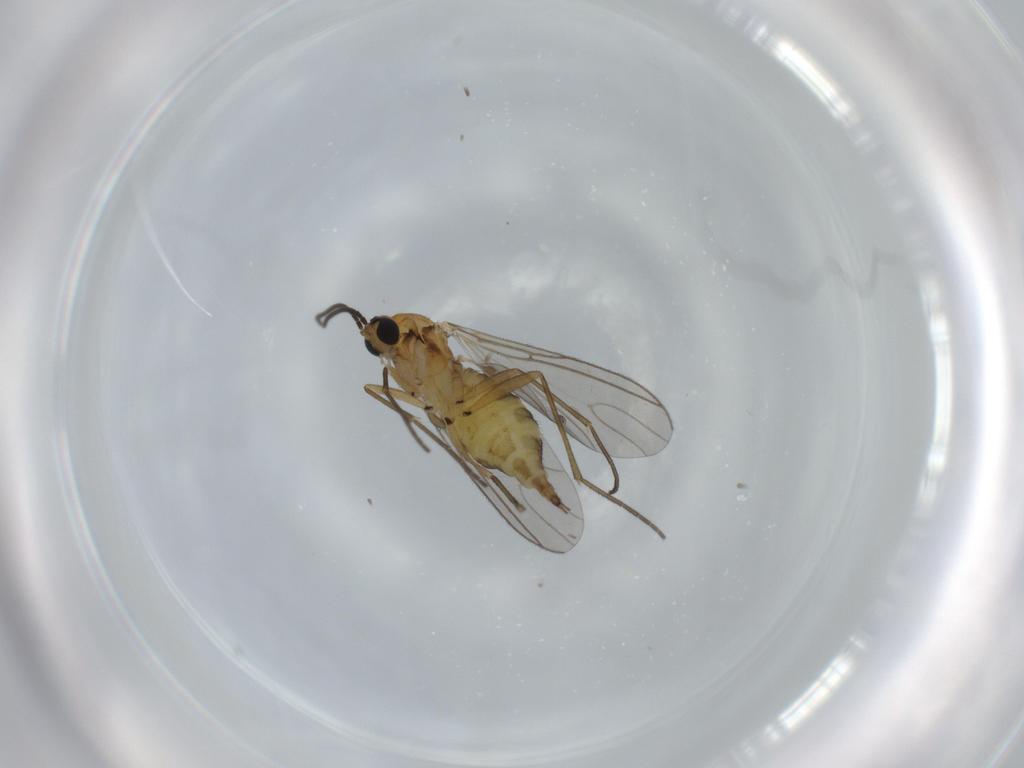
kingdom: Animalia
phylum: Arthropoda
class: Insecta
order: Diptera
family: Sciaridae
